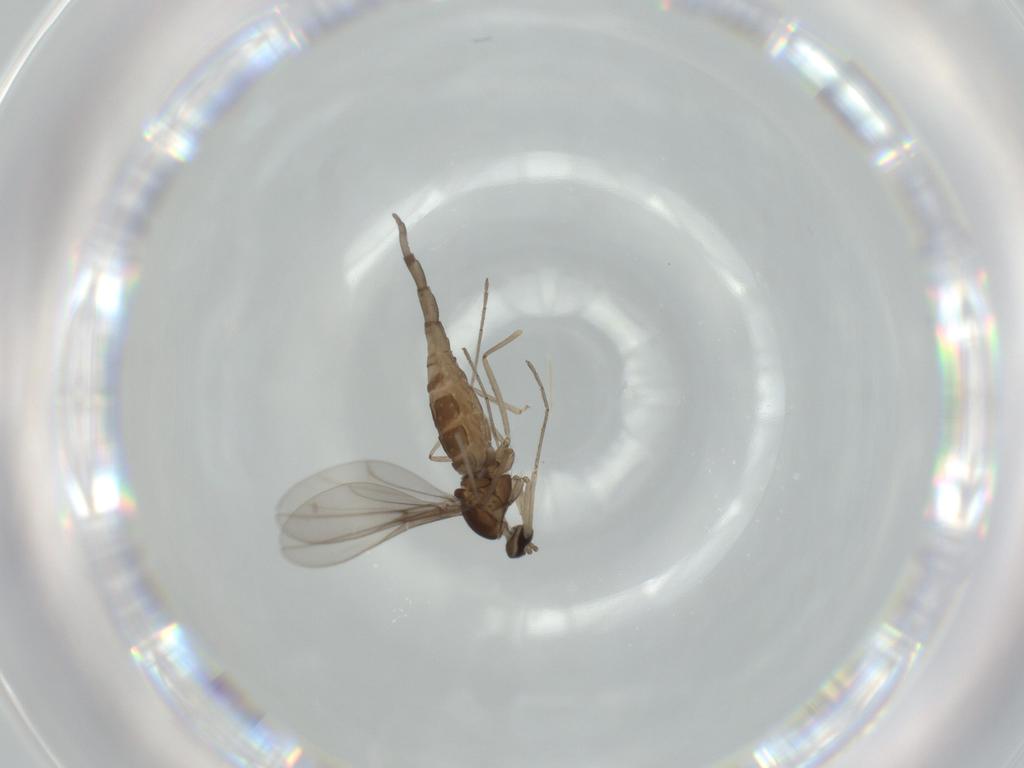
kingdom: Animalia
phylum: Arthropoda
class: Insecta
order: Diptera
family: Cecidomyiidae
